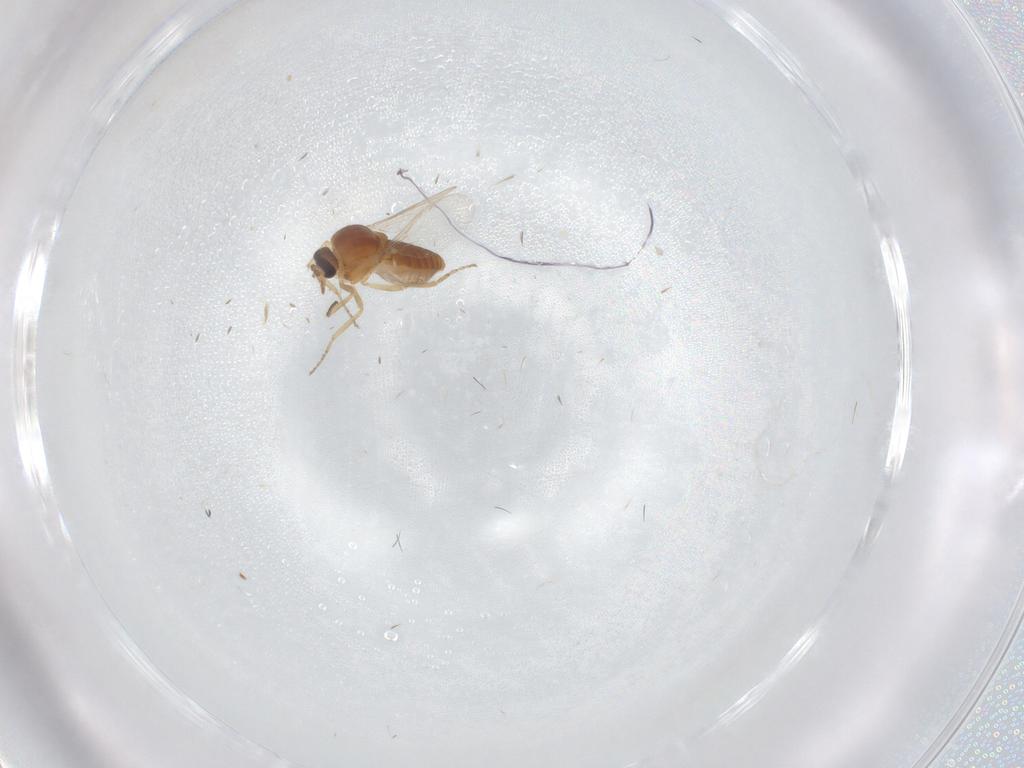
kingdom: Animalia
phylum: Arthropoda
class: Insecta
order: Diptera
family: Ceratopogonidae
